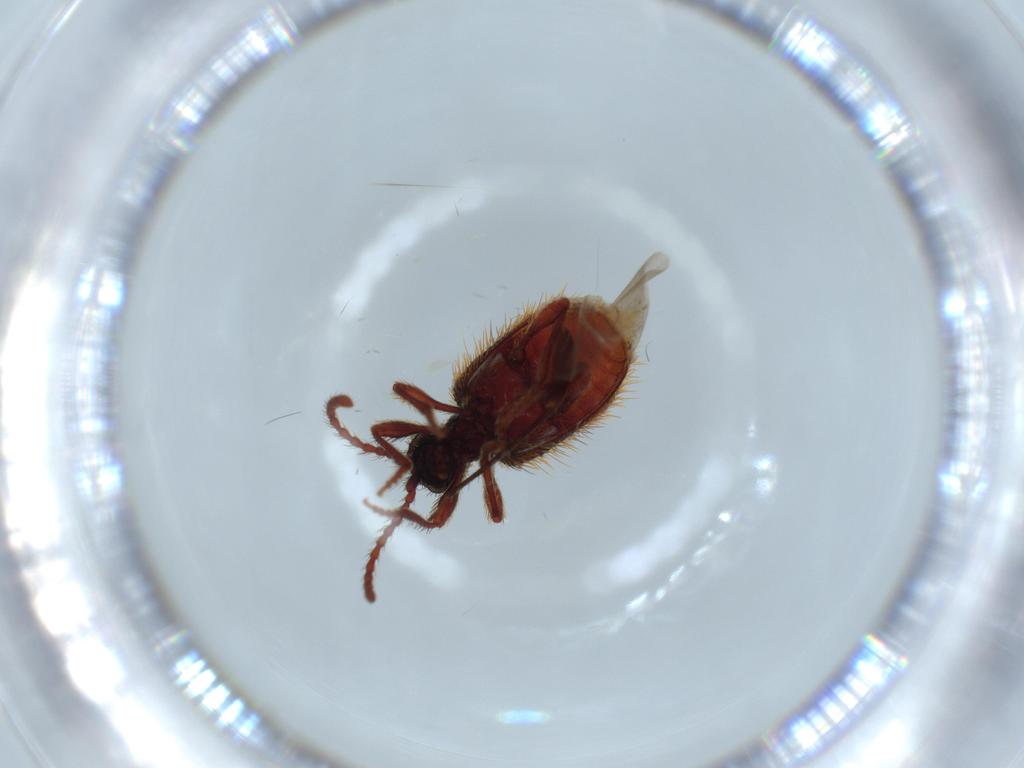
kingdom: Animalia
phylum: Arthropoda
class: Insecta
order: Coleoptera
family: Ptinidae
